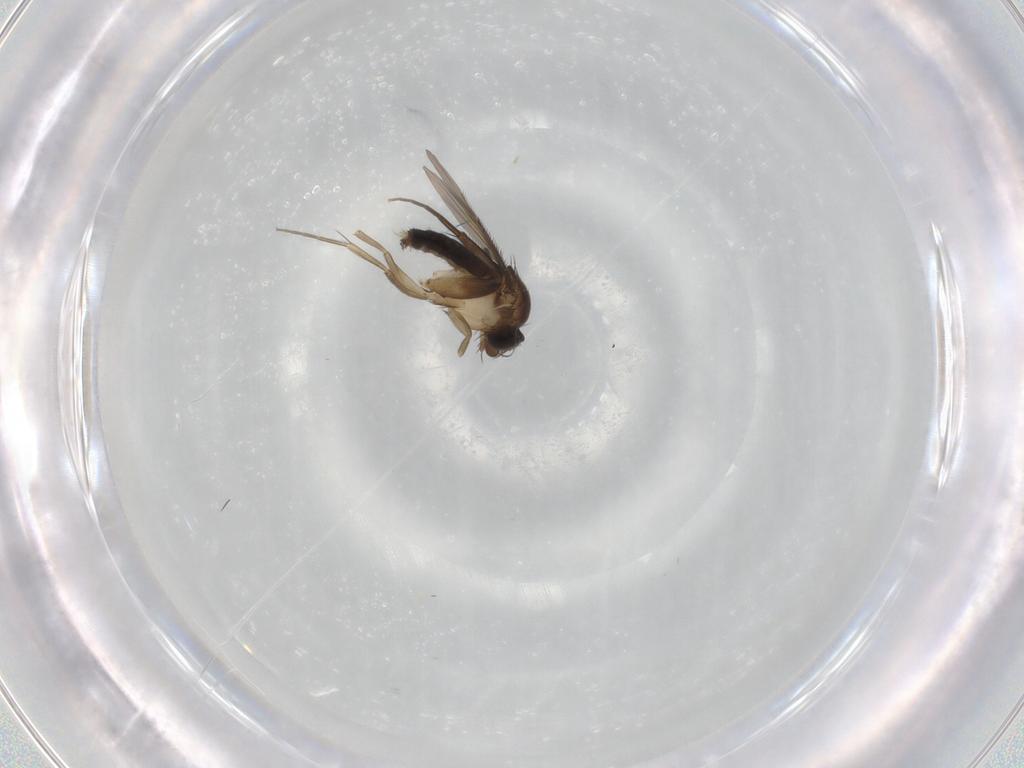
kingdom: Animalia
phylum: Arthropoda
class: Insecta
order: Diptera
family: Phoridae
